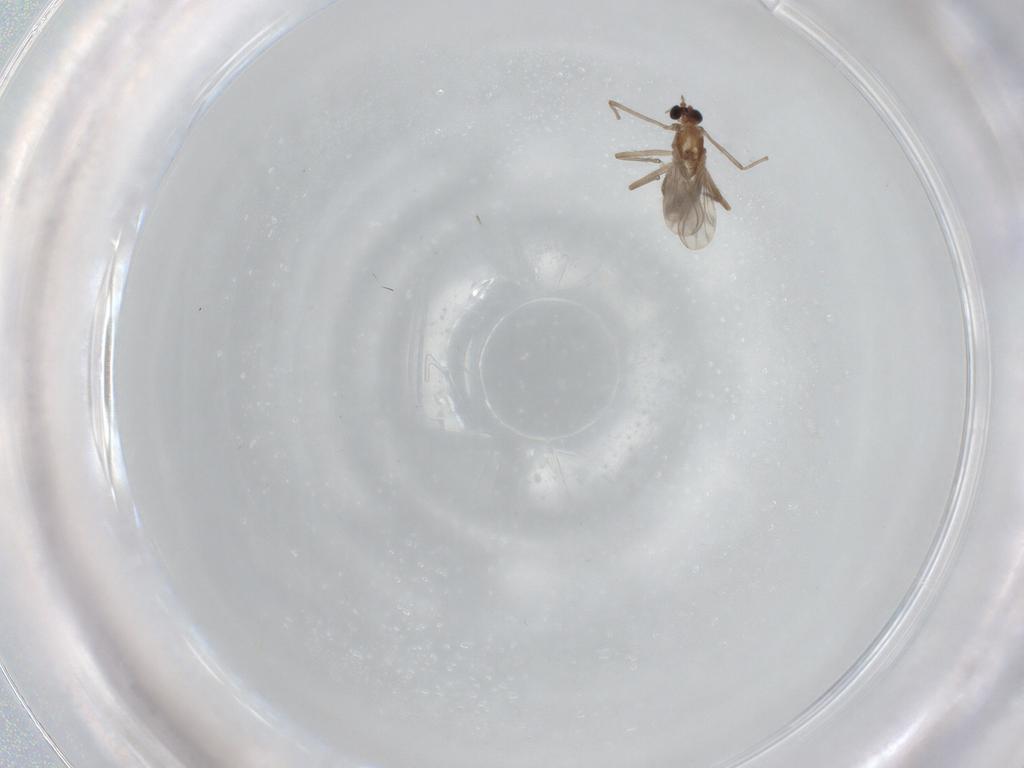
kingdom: Animalia
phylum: Arthropoda
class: Insecta
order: Diptera
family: Chironomidae
